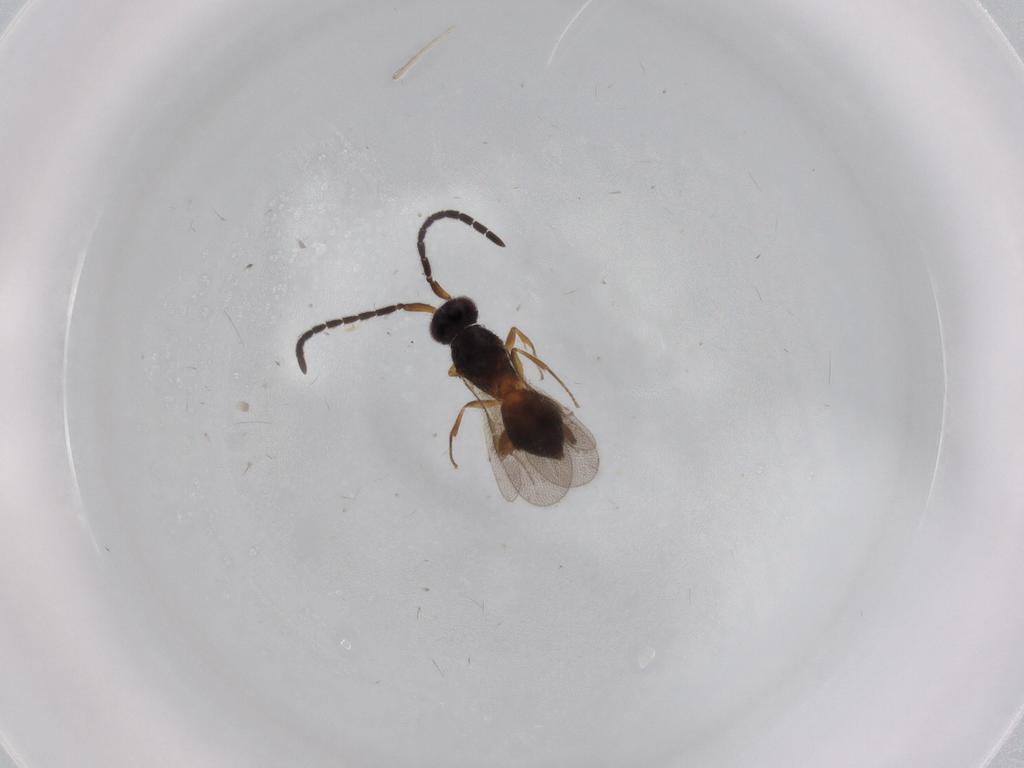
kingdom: Animalia
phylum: Arthropoda
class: Insecta
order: Hymenoptera
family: Megaspilidae
